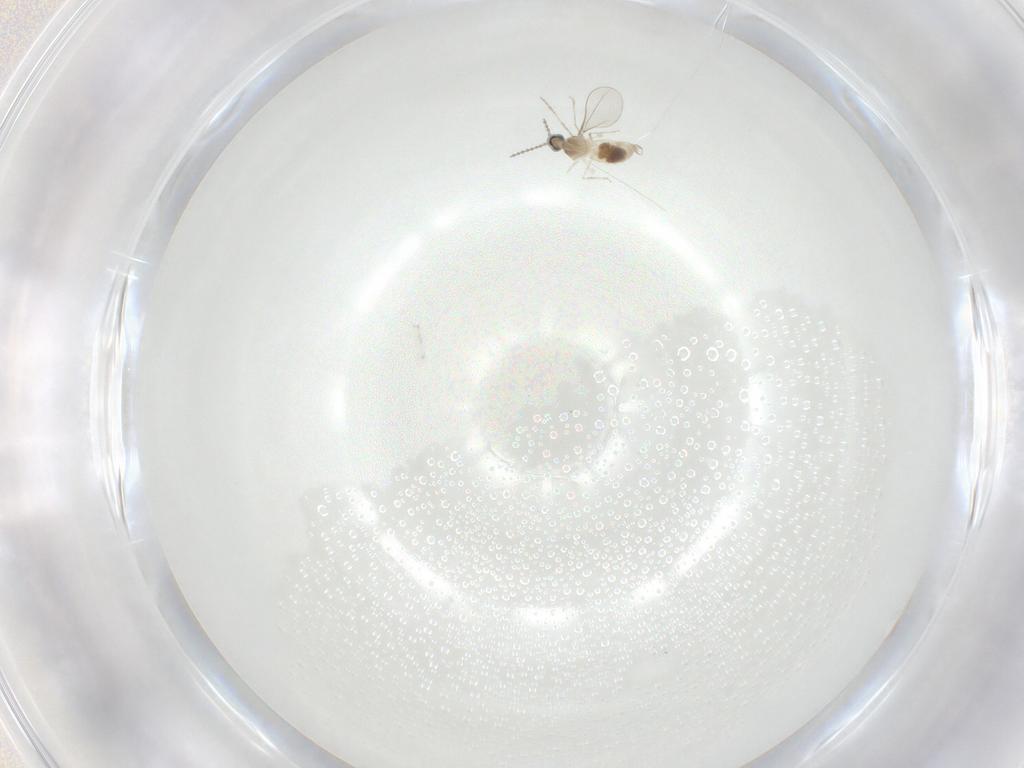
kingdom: Animalia
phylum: Arthropoda
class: Insecta
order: Diptera
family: Cecidomyiidae
